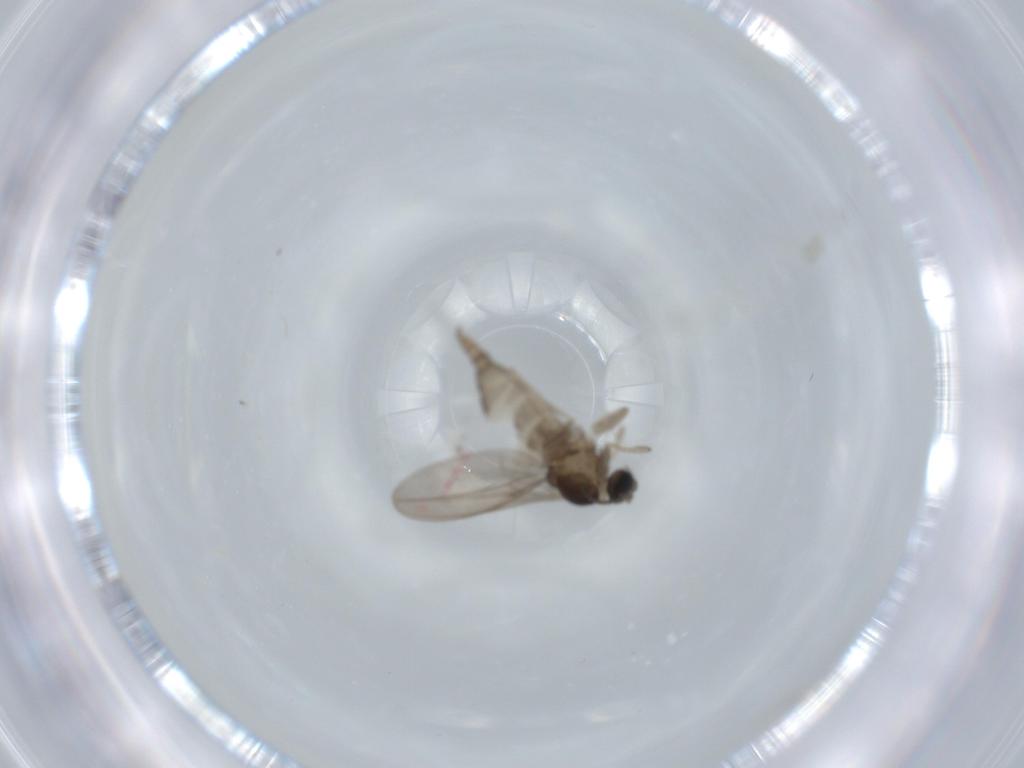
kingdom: Animalia
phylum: Arthropoda
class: Insecta
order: Diptera
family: Cecidomyiidae
